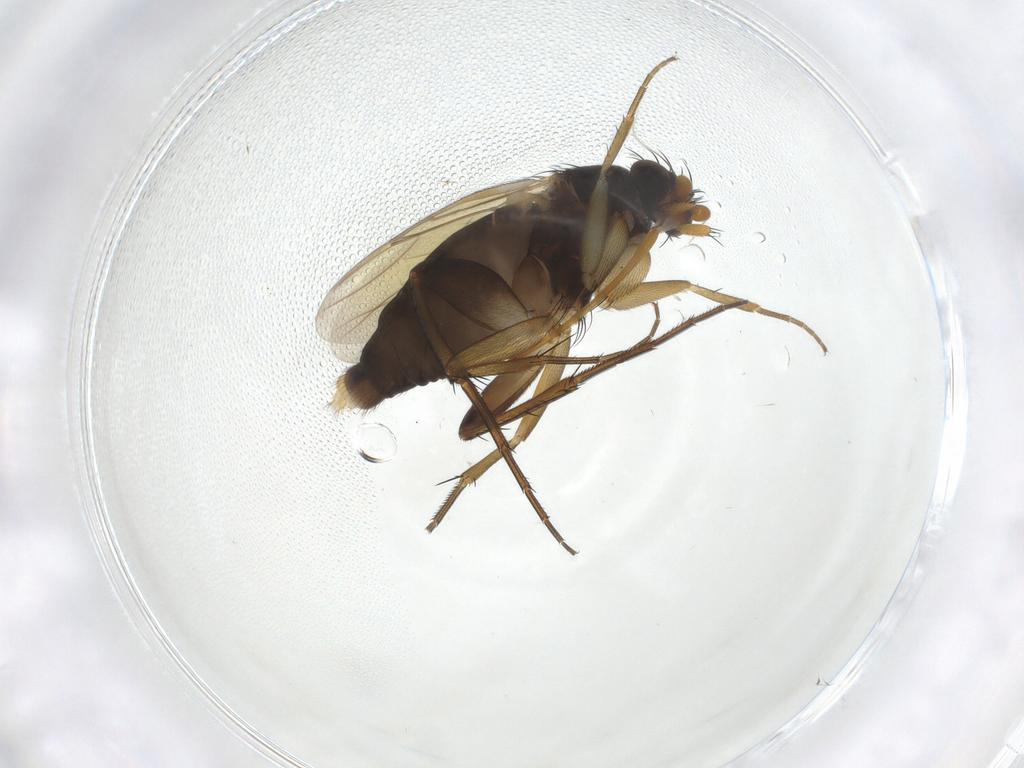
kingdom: Animalia
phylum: Arthropoda
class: Insecta
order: Diptera
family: Phoridae
